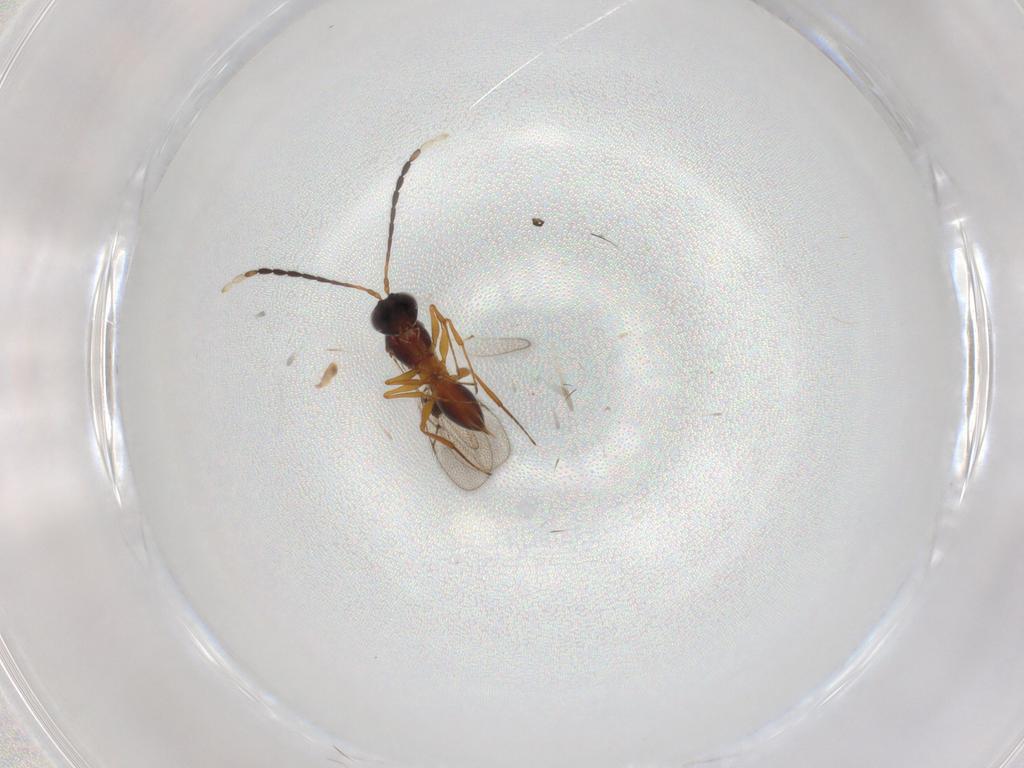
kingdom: Animalia
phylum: Arthropoda
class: Insecta
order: Hymenoptera
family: Figitidae
